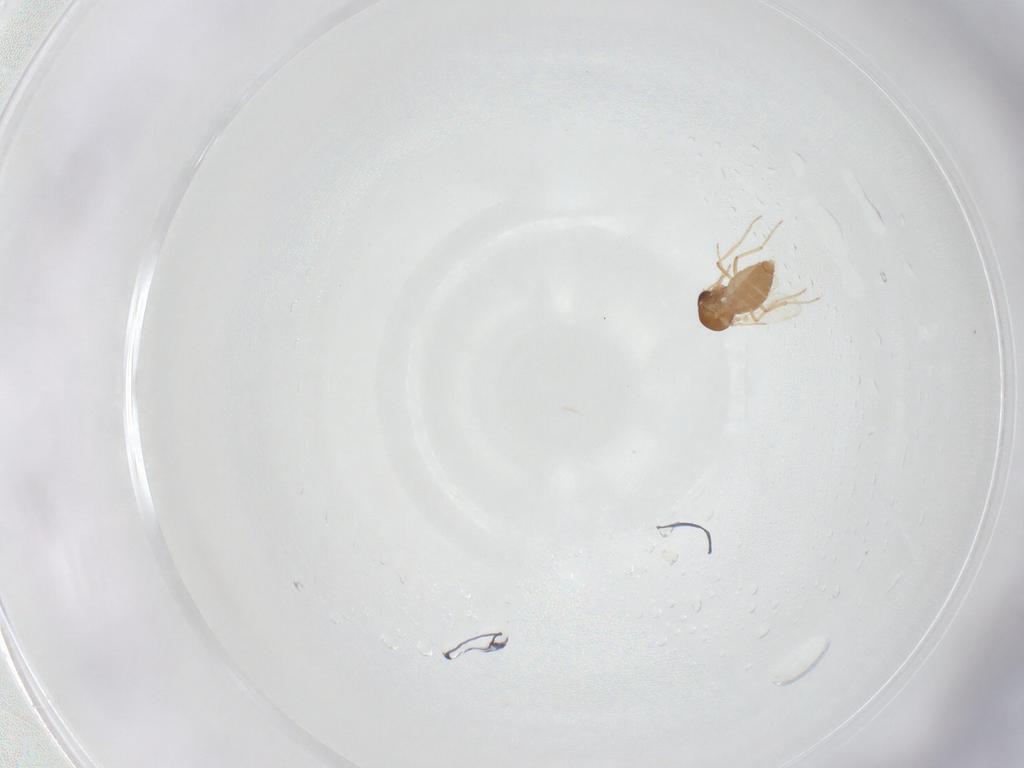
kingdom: Animalia
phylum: Arthropoda
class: Insecta
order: Diptera
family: Ceratopogonidae
